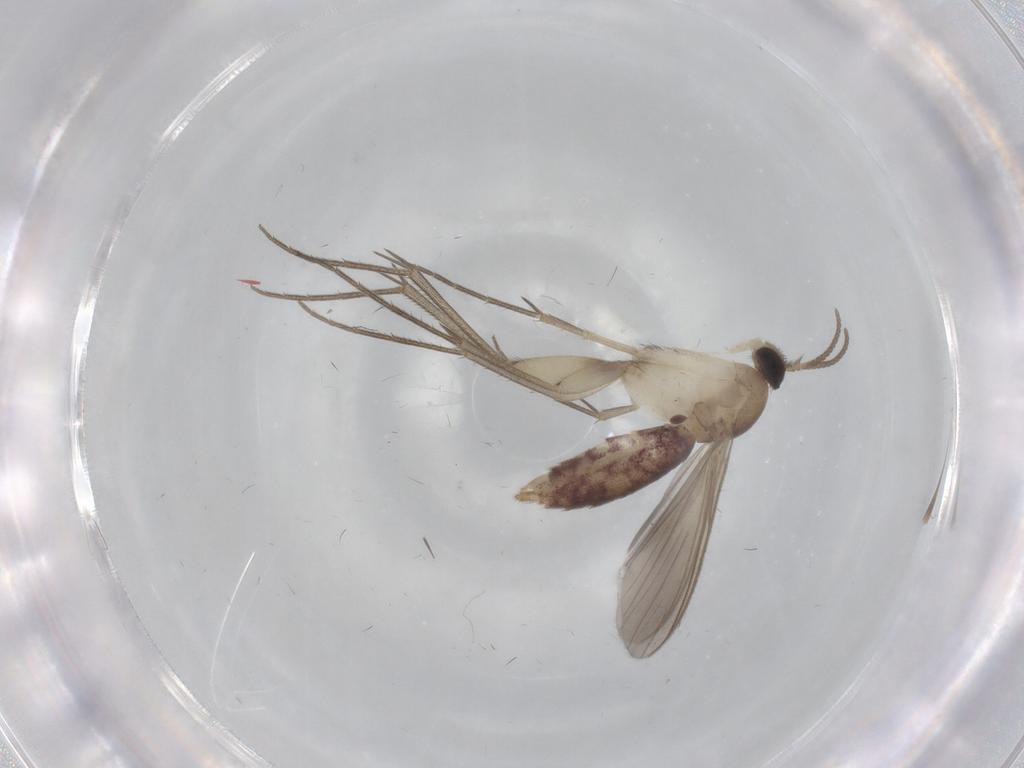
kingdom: Animalia
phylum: Arthropoda
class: Insecta
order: Diptera
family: Mycetophilidae
